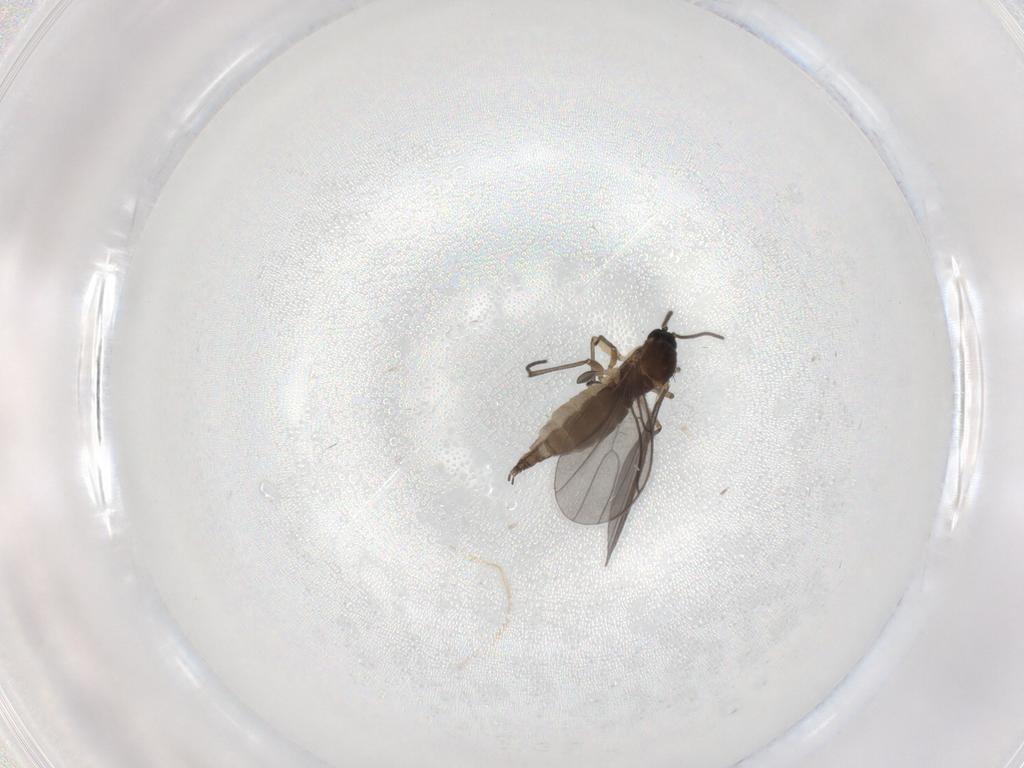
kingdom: Animalia
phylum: Arthropoda
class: Insecta
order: Diptera
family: Sciaridae
